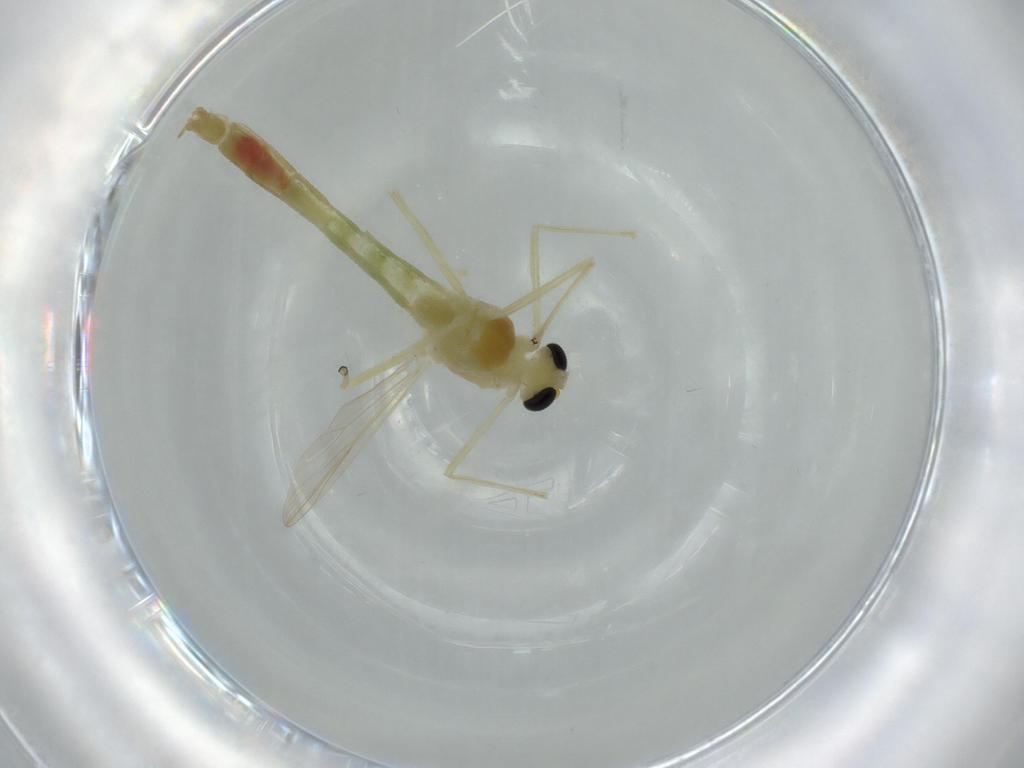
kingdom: Animalia
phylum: Arthropoda
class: Insecta
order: Diptera
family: Chironomidae
